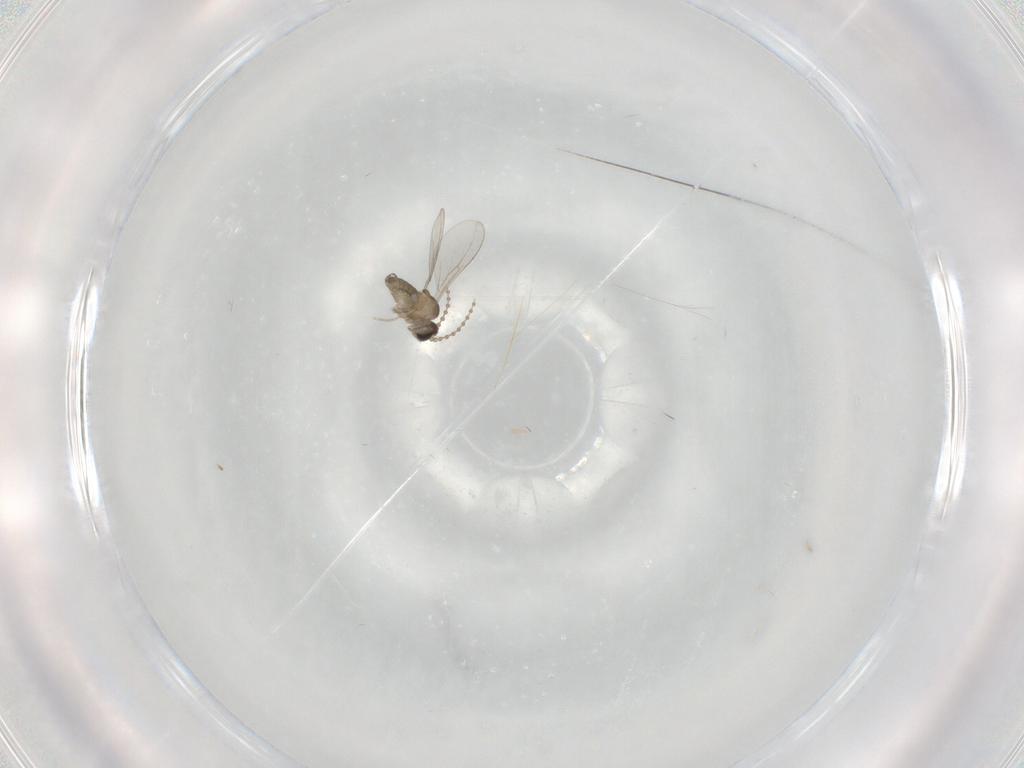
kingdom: Animalia
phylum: Arthropoda
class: Insecta
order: Diptera
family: Cecidomyiidae
